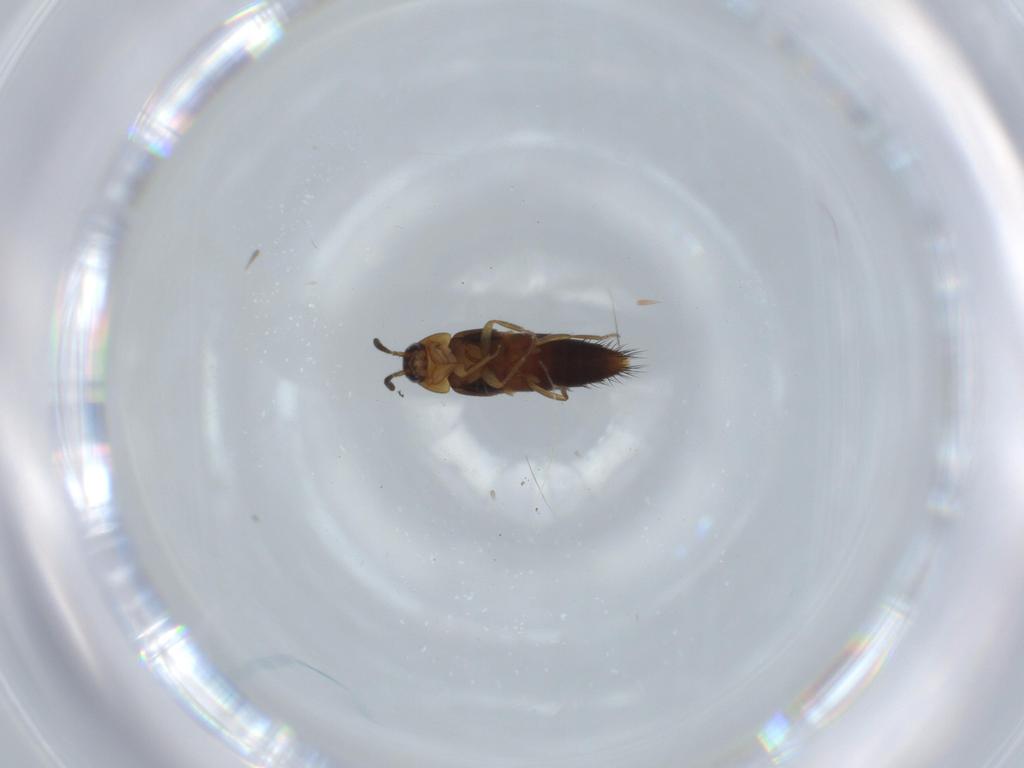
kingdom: Animalia
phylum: Arthropoda
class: Insecta
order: Coleoptera
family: Staphylinidae
